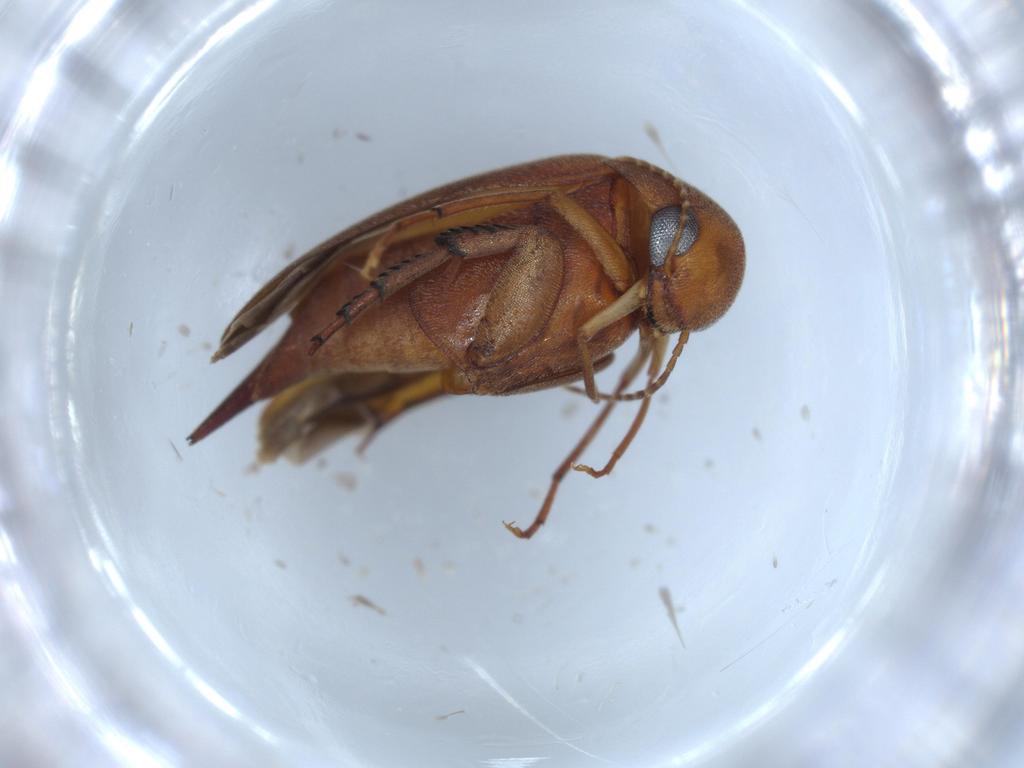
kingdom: Animalia
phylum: Arthropoda
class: Insecta
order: Coleoptera
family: Mordellidae
